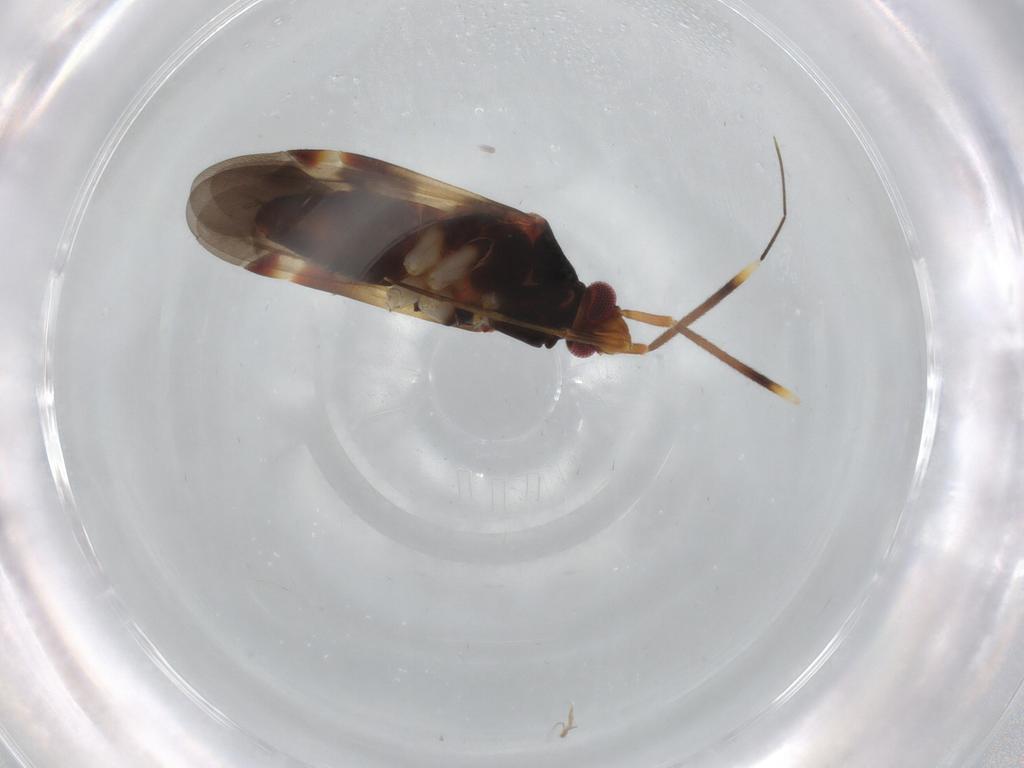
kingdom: Animalia
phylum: Arthropoda
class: Insecta
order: Hemiptera
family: Miridae
